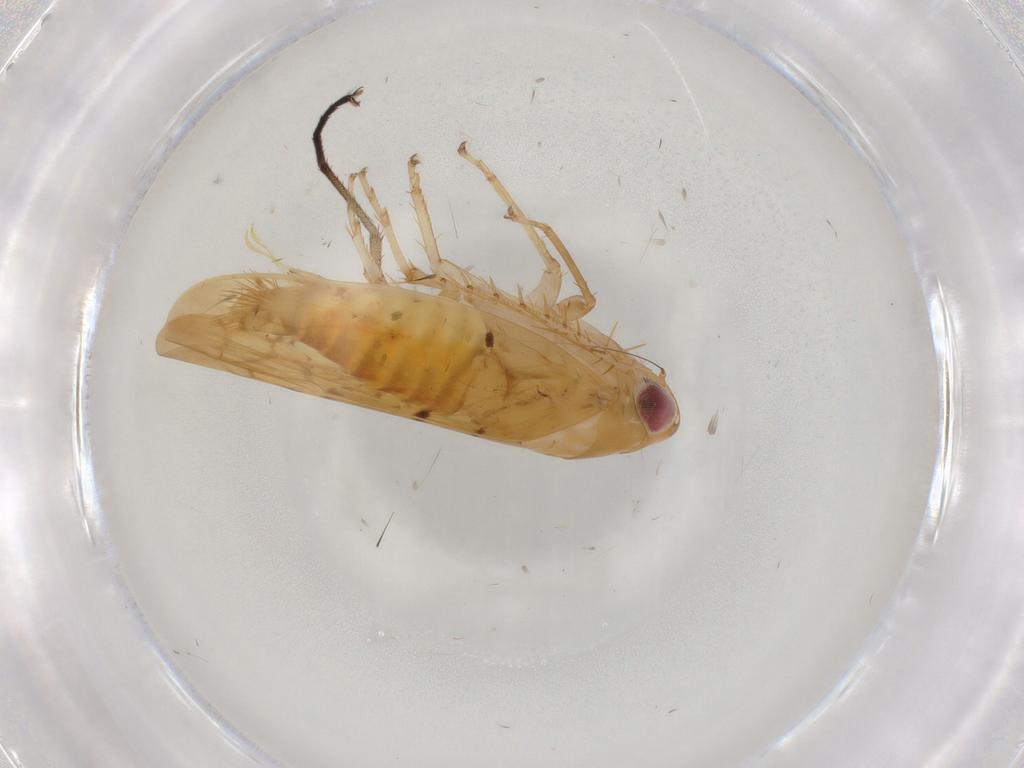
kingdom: Animalia
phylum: Arthropoda
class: Insecta
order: Hemiptera
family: Cicadellidae
